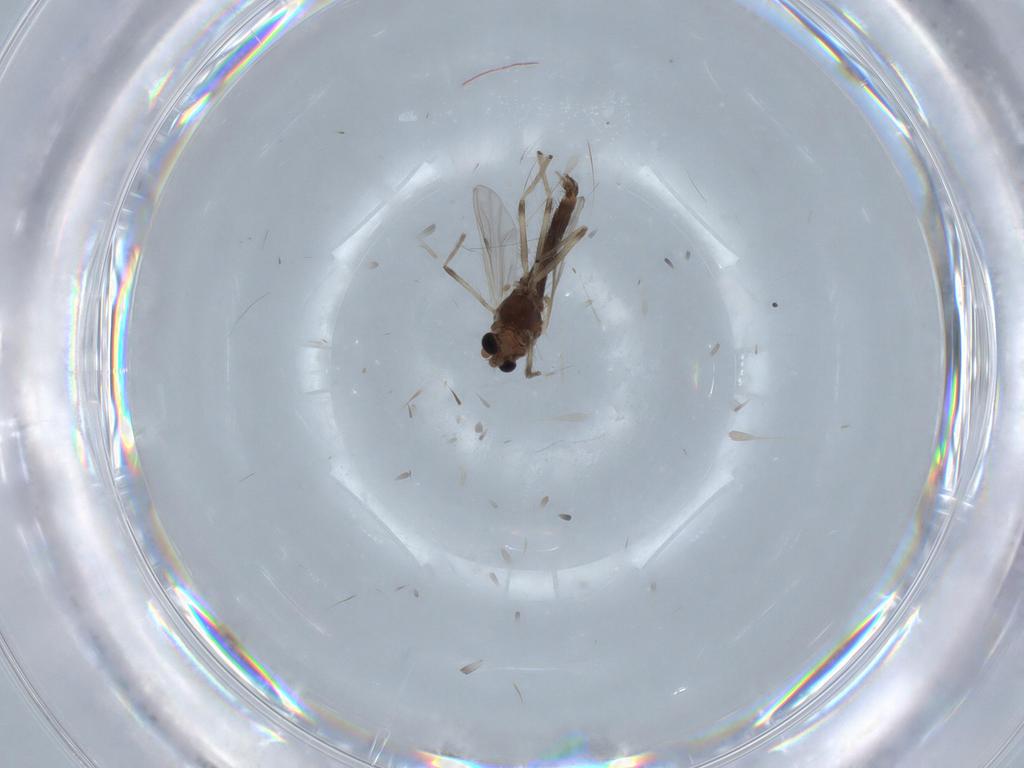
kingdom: Animalia
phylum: Arthropoda
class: Insecta
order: Diptera
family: Chironomidae
